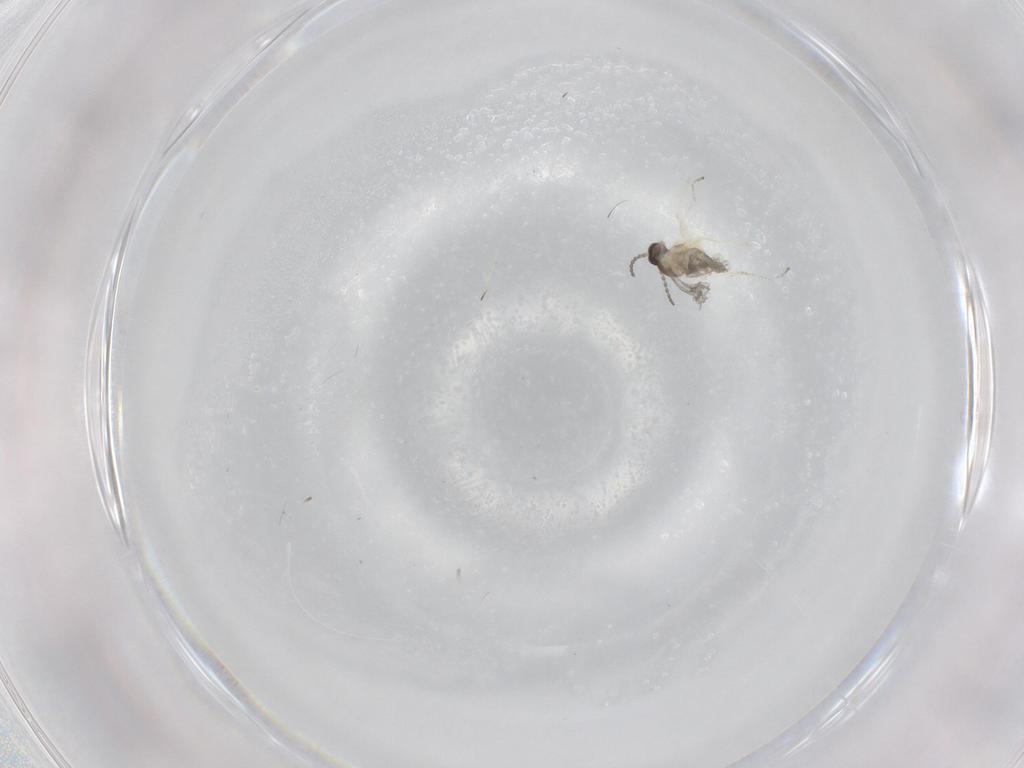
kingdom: Animalia
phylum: Arthropoda
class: Insecta
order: Diptera
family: Cecidomyiidae
